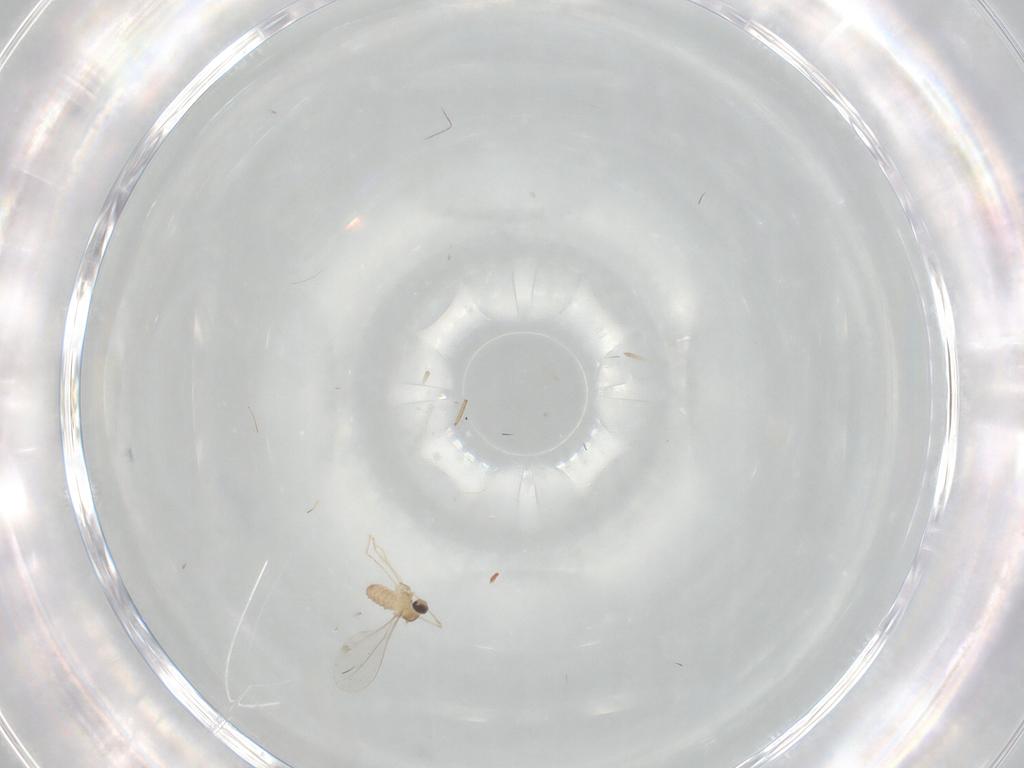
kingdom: Animalia
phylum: Arthropoda
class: Insecta
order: Diptera
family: Cecidomyiidae
